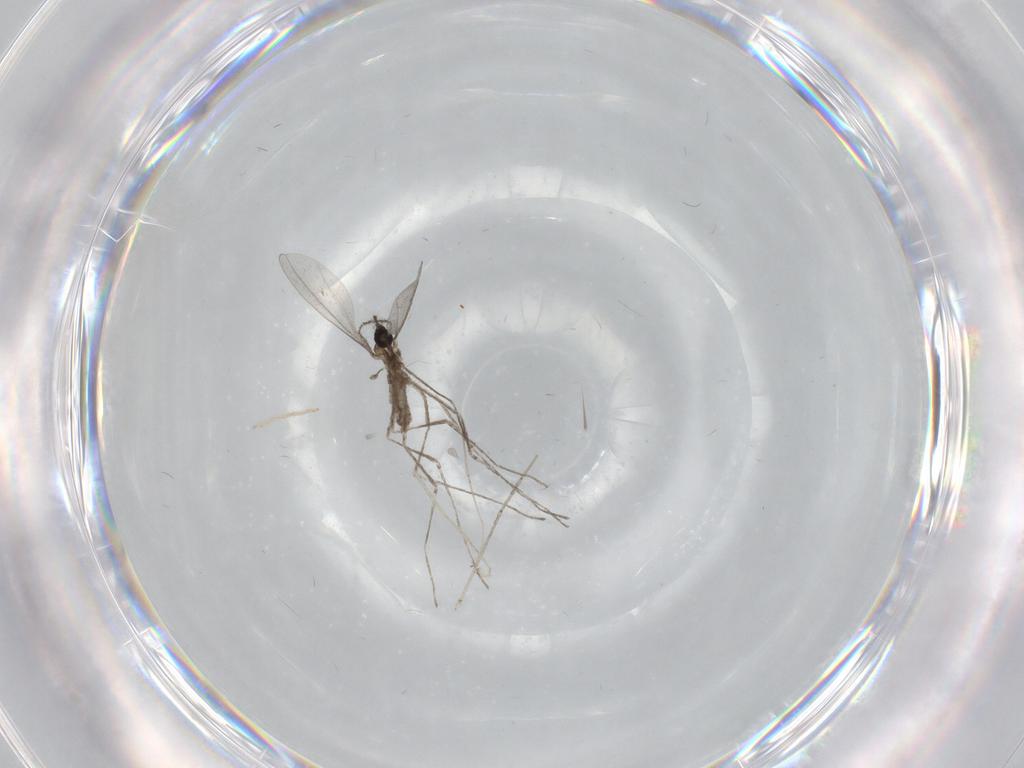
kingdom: Animalia
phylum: Arthropoda
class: Insecta
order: Diptera
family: Cecidomyiidae
